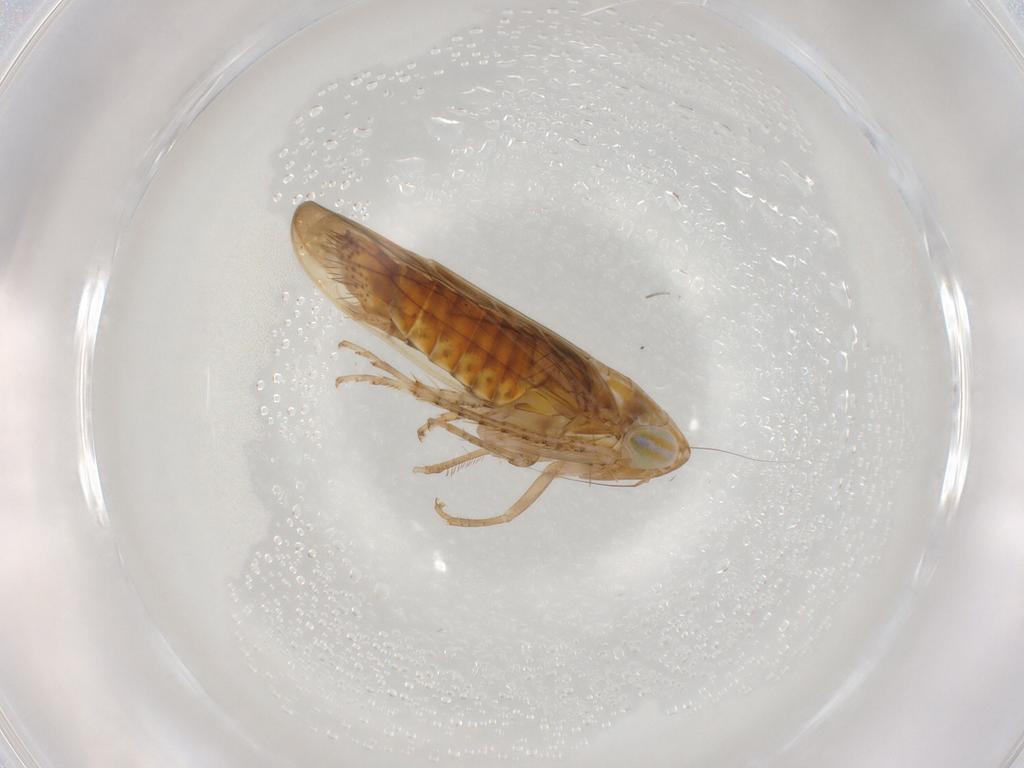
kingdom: Animalia
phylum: Arthropoda
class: Insecta
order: Hemiptera
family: Cicadellidae
